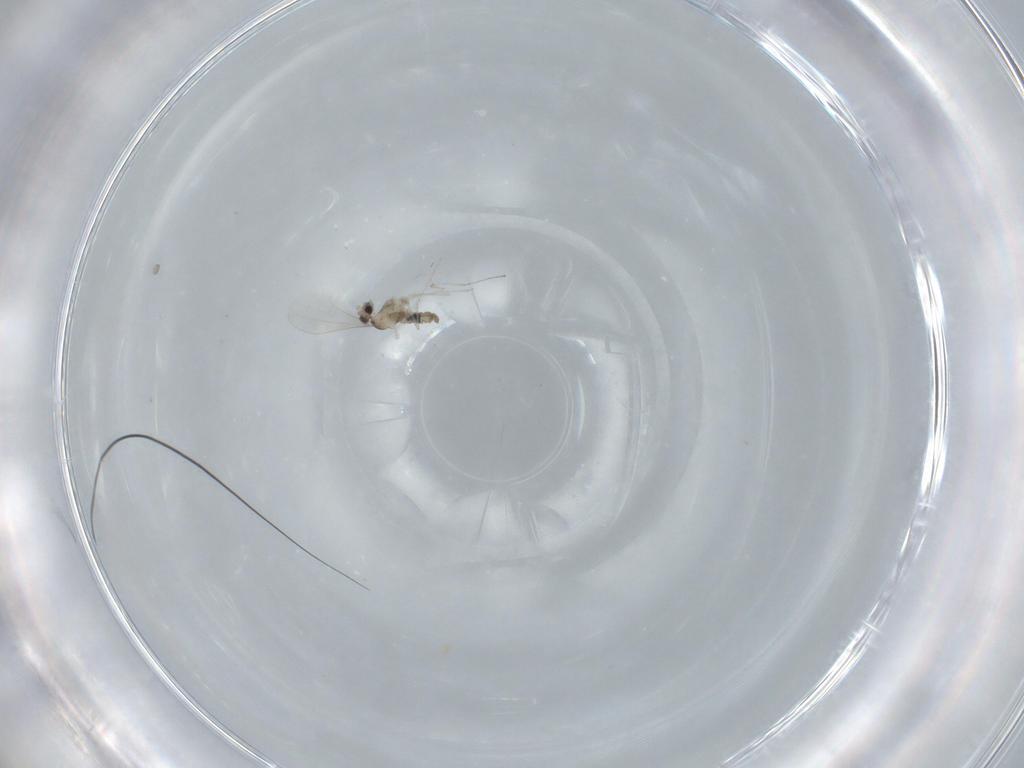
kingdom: Animalia
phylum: Arthropoda
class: Insecta
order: Diptera
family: Cecidomyiidae
